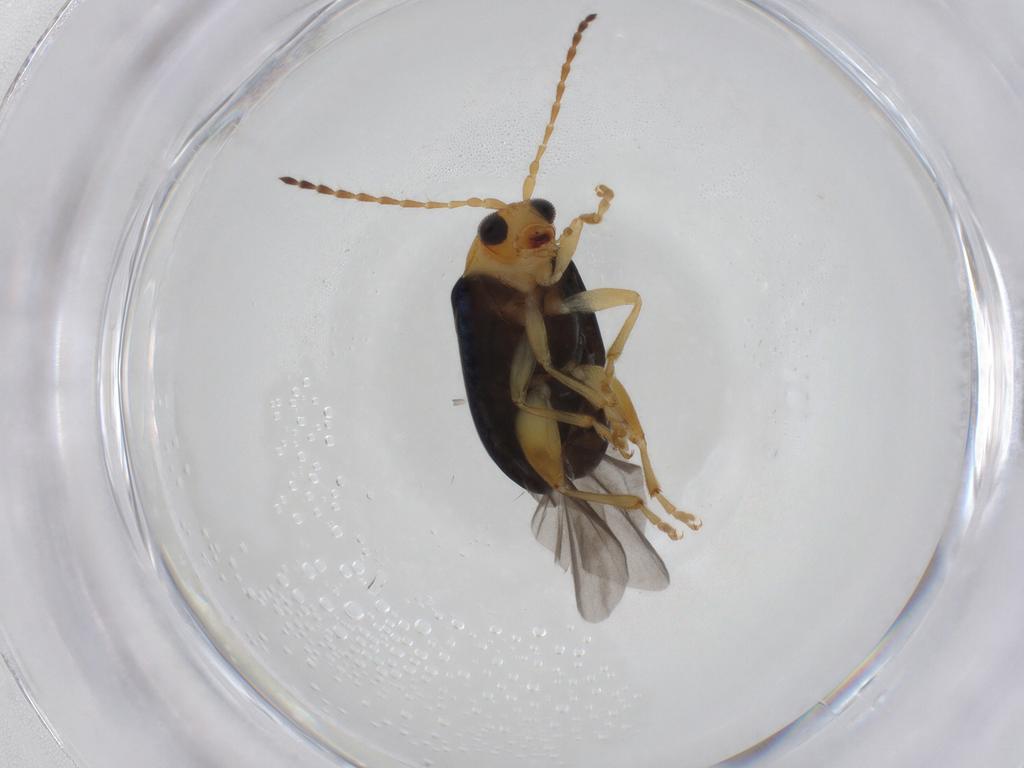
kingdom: Animalia
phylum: Arthropoda
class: Insecta
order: Coleoptera
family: Chrysomelidae
